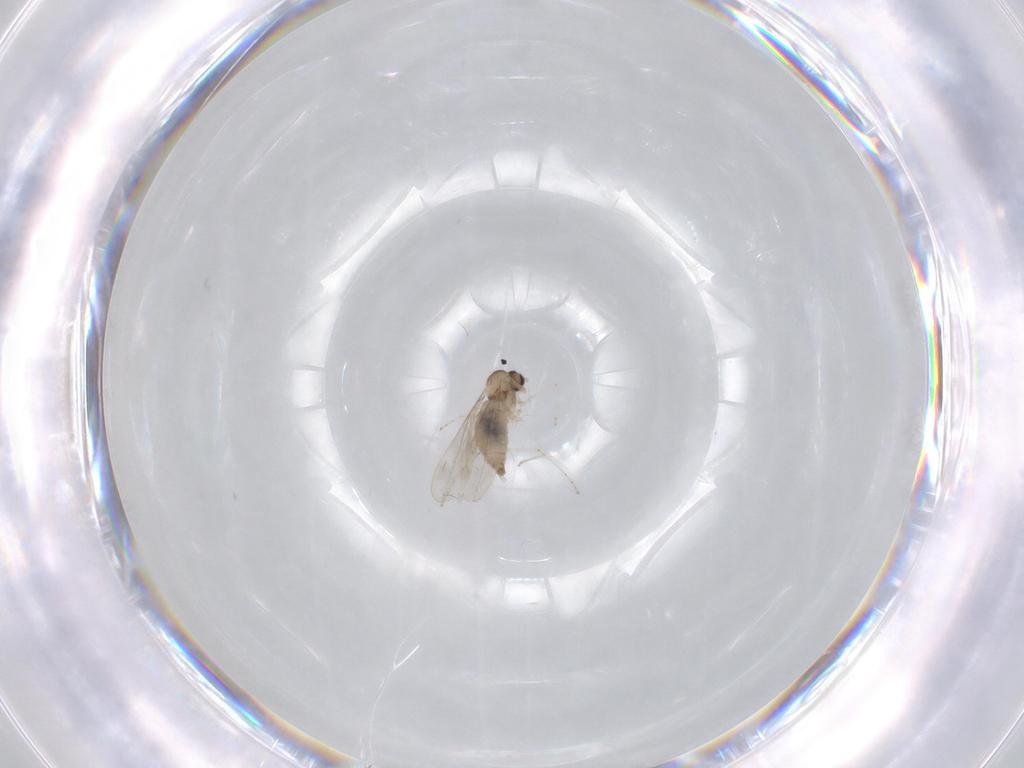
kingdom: Animalia
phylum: Arthropoda
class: Insecta
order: Diptera
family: Cecidomyiidae
